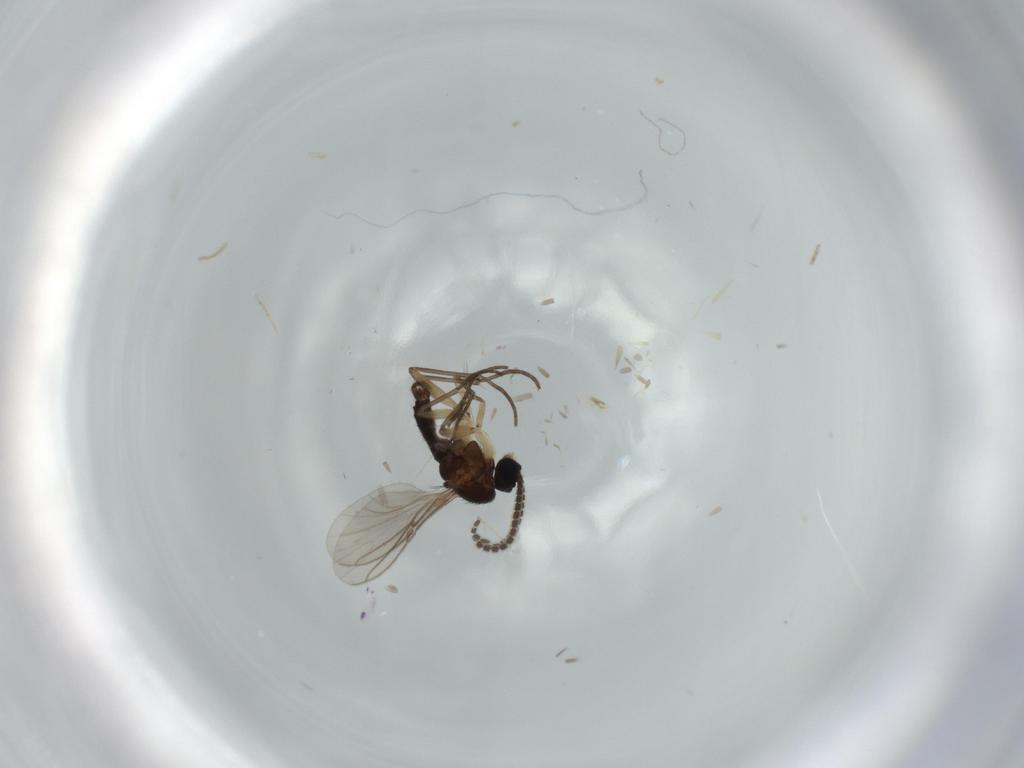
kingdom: Animalia
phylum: Arthropoda
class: Insecta
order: Diptera
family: Sciaridae
